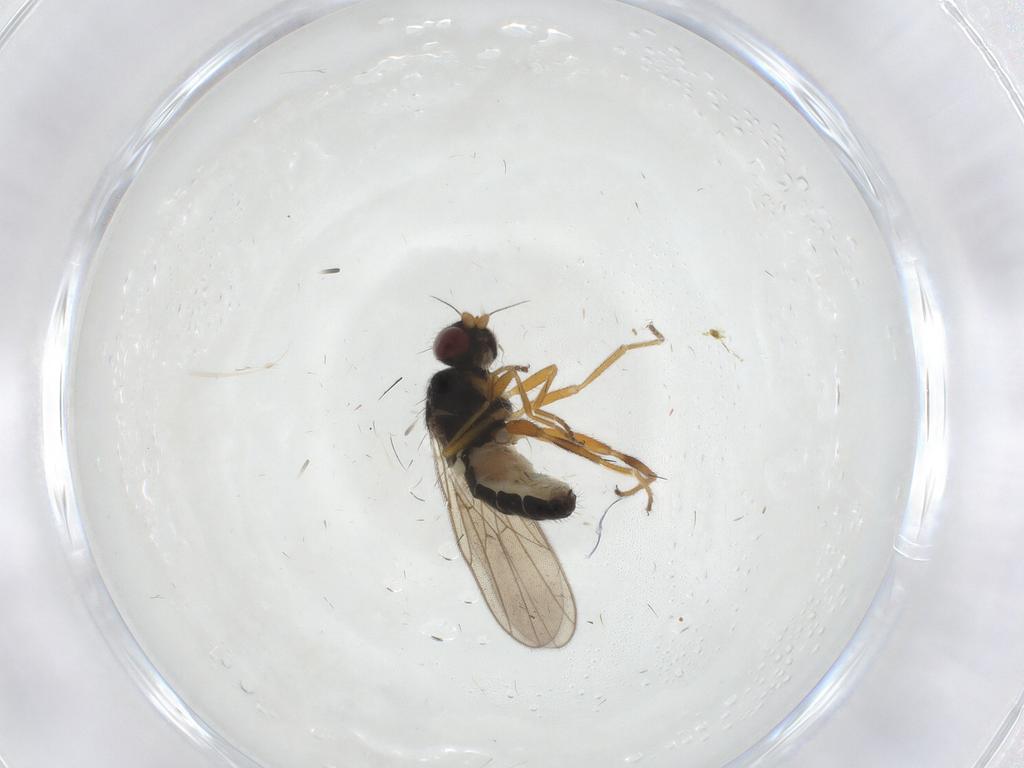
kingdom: Animalia
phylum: Arthropoda
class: Insecta
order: Diptera
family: Chloropidae
